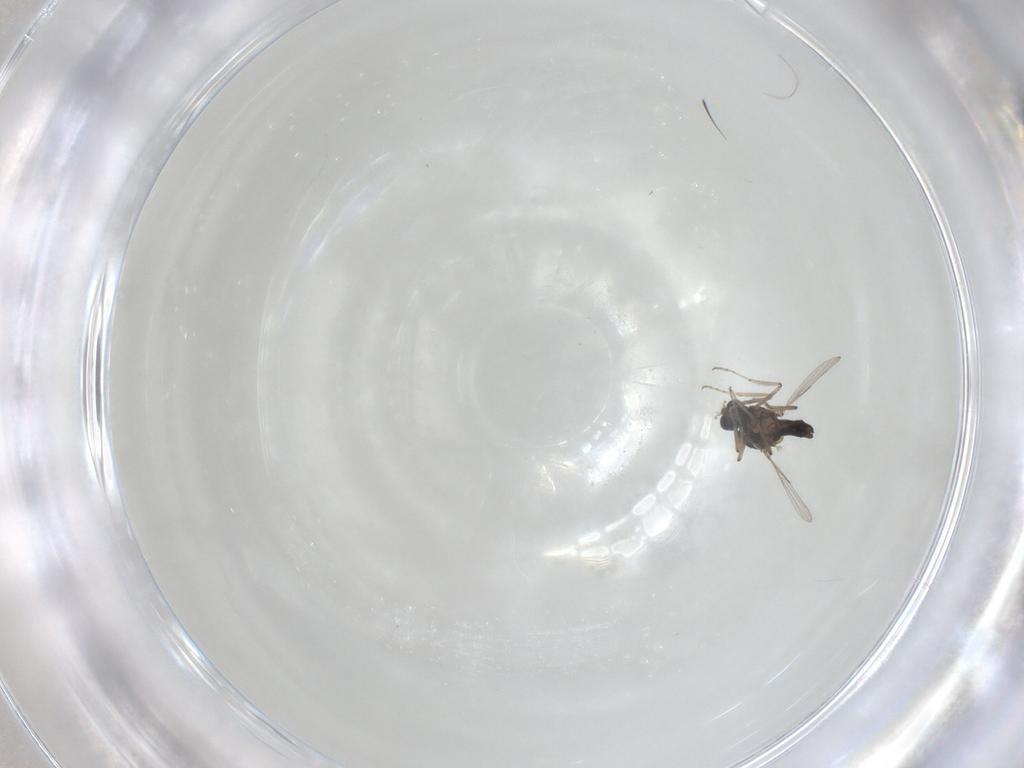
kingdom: Animalia
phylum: Arthropoda
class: Insecta
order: Diptera
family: Ceratopogonidae
